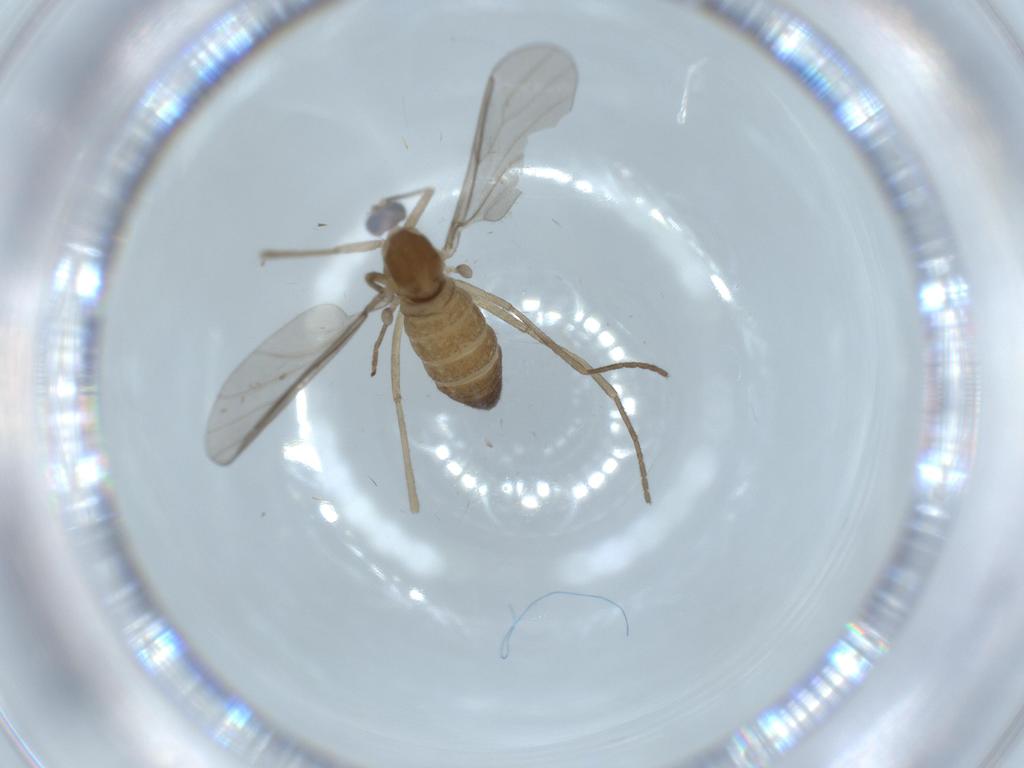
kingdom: Animalia
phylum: Arthropoda
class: Insecta
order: Diptera
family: Cecidomyiidae
